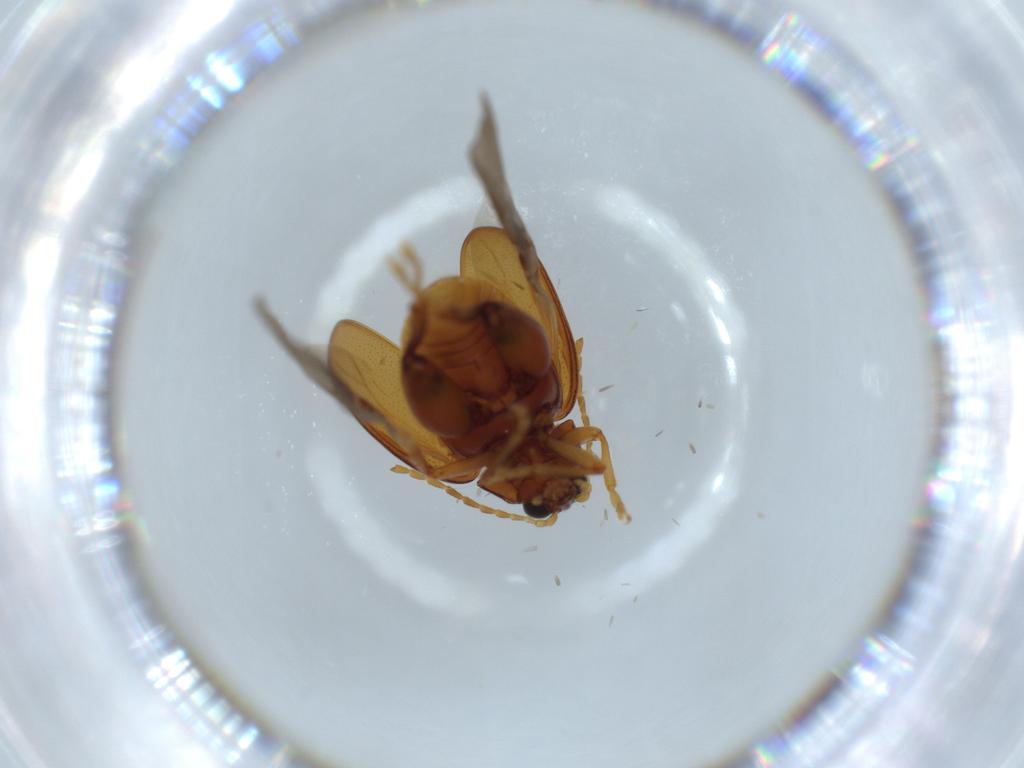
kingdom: Animalia
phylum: Arthropoda
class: Insecta
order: Coleoptera
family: Chrysomelidae
